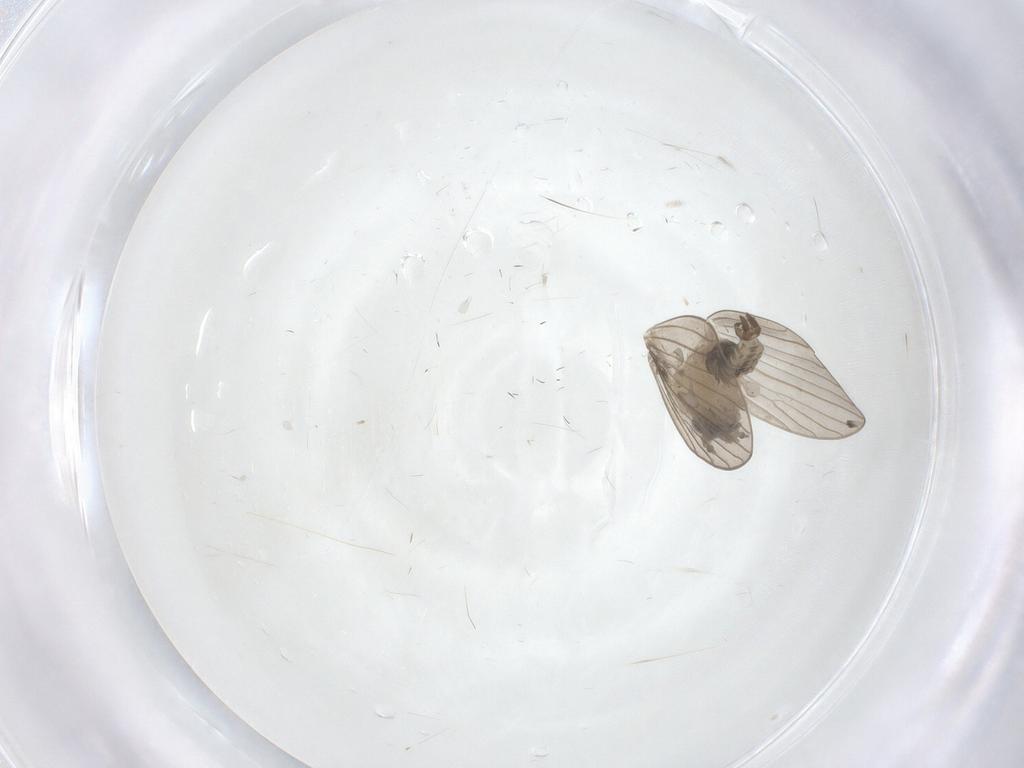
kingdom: Animalia
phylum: Arthropoda
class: Insecta
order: Diptera
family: Psychodidae
